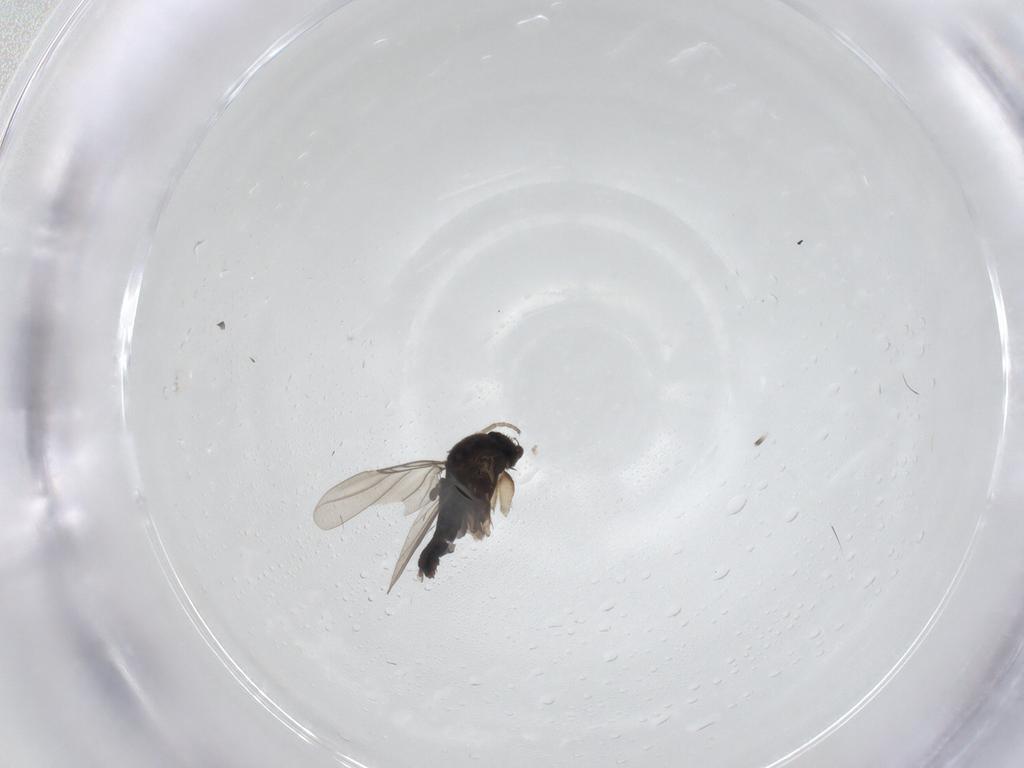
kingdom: Animalia
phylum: Arthropoda
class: Insecta
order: Diptera
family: Phoridae
